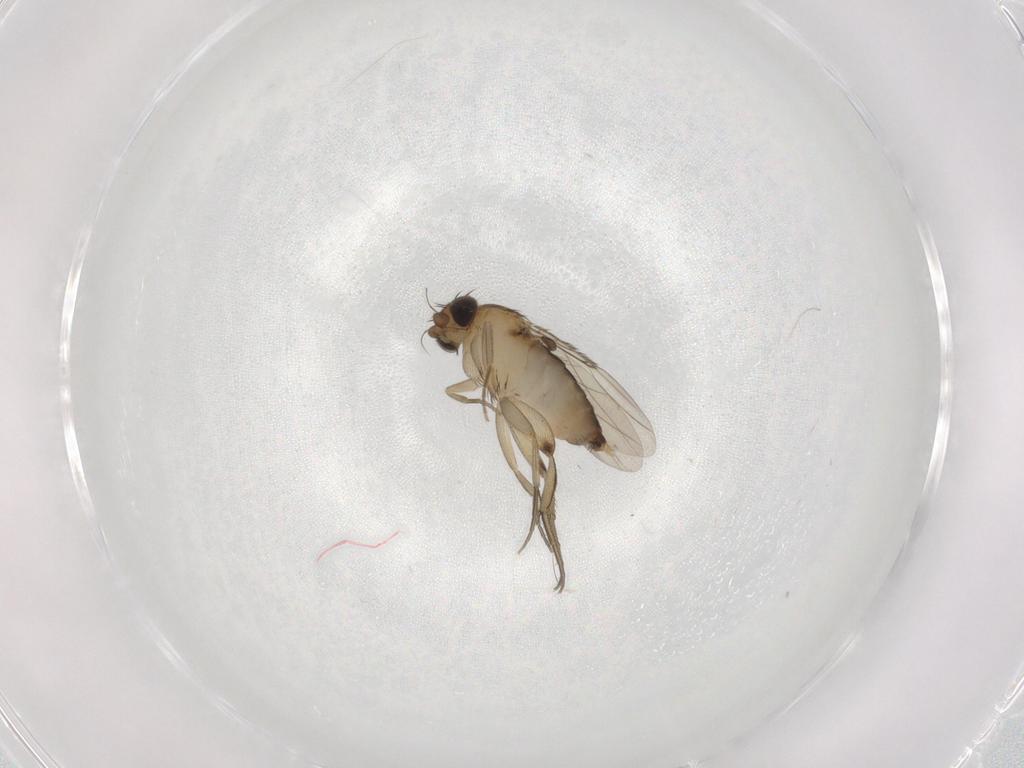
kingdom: Animalia
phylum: Arthropoda
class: Insecta
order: Diptera
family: Phoridae
